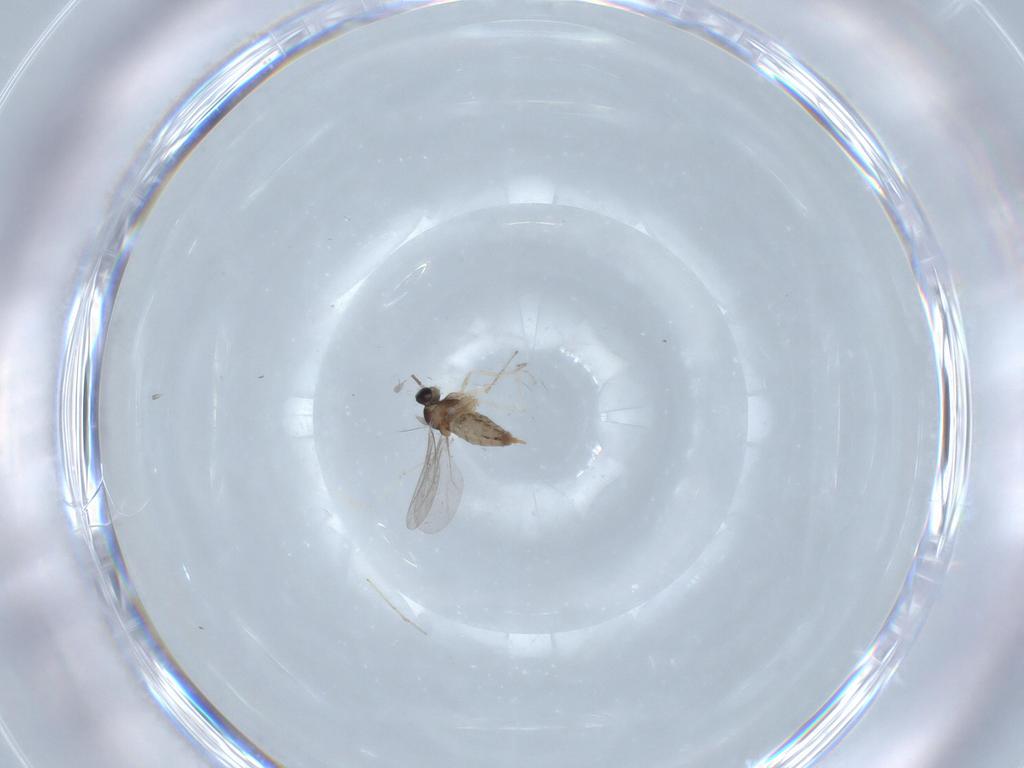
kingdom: Animalia
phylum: Arthropoda
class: Insecta
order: Diptera
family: Cecidomyiidae
